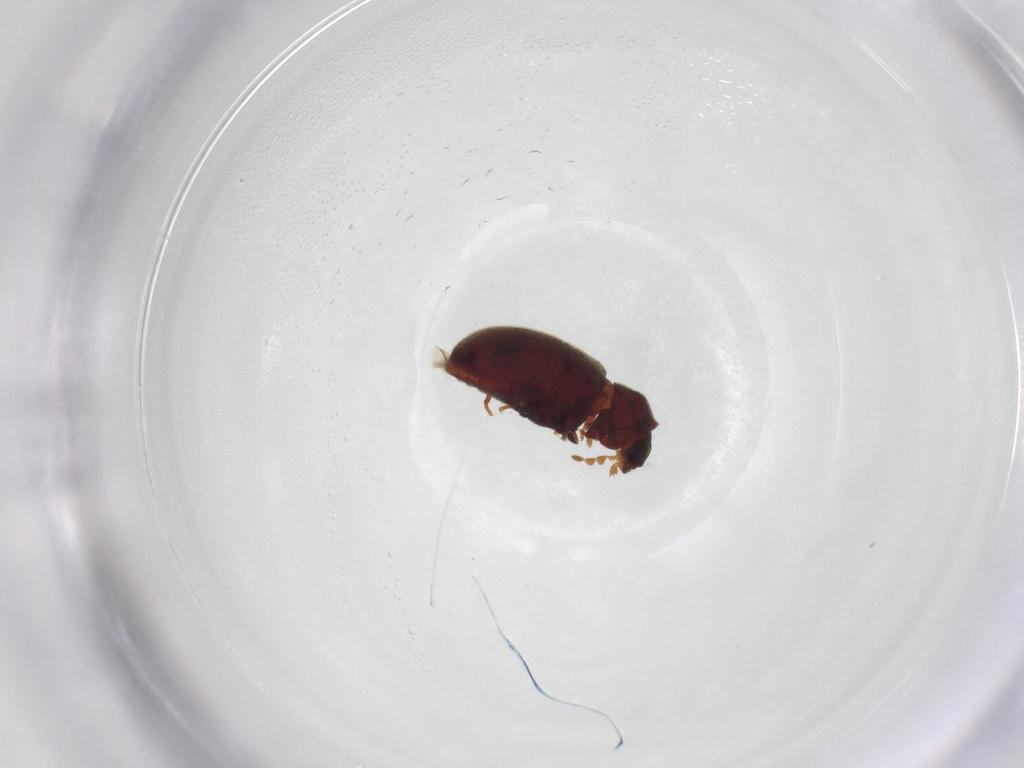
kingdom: Animalia
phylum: Arthropoda
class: Insecta
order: Coleoptera
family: Ptinidae
